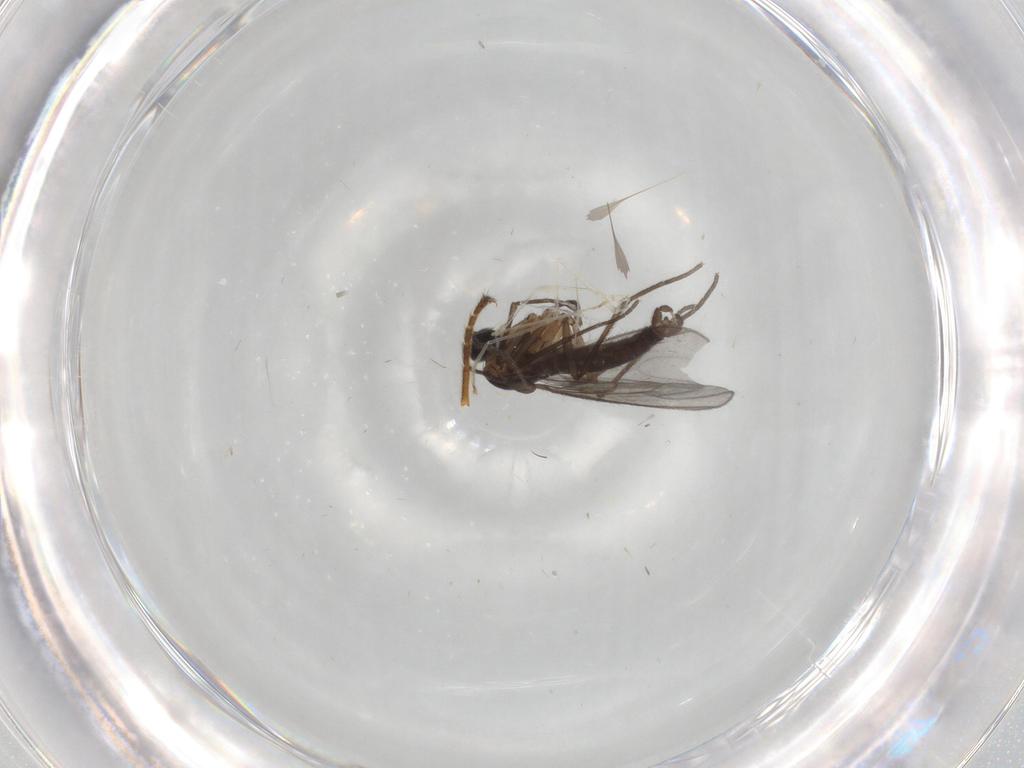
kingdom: Animalia
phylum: Arthropoda
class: Insecta
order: Diptera
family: Sciaridae
